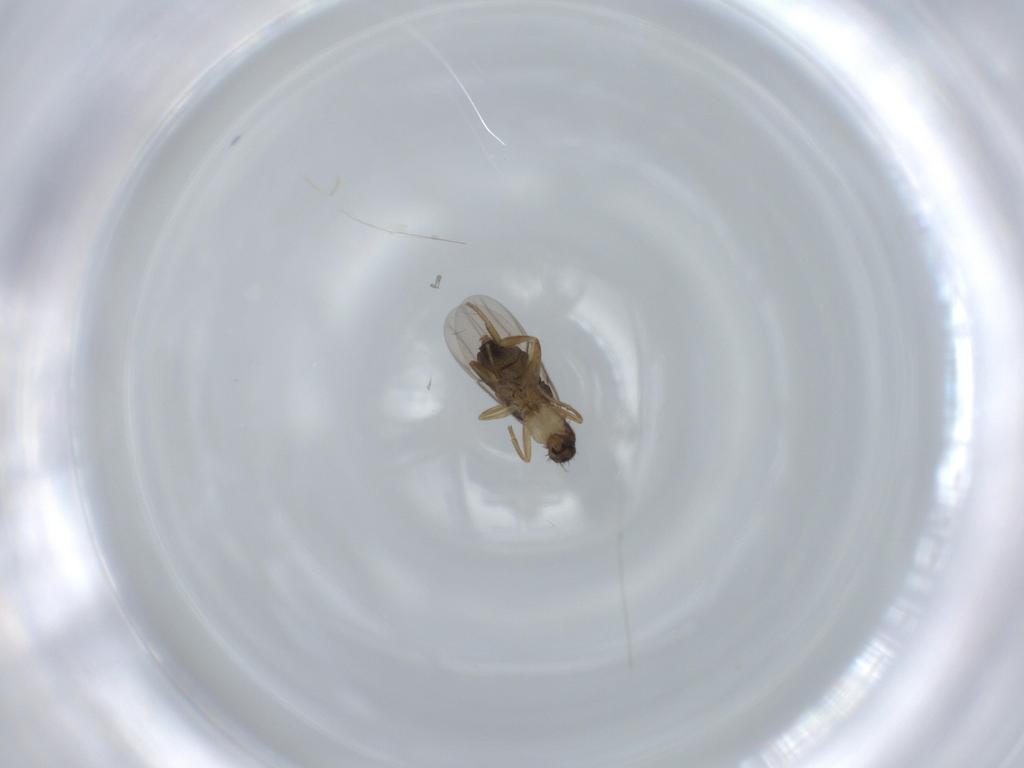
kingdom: Animalia
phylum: Arthropoda
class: Insecta
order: Diptera
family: Phoridae
